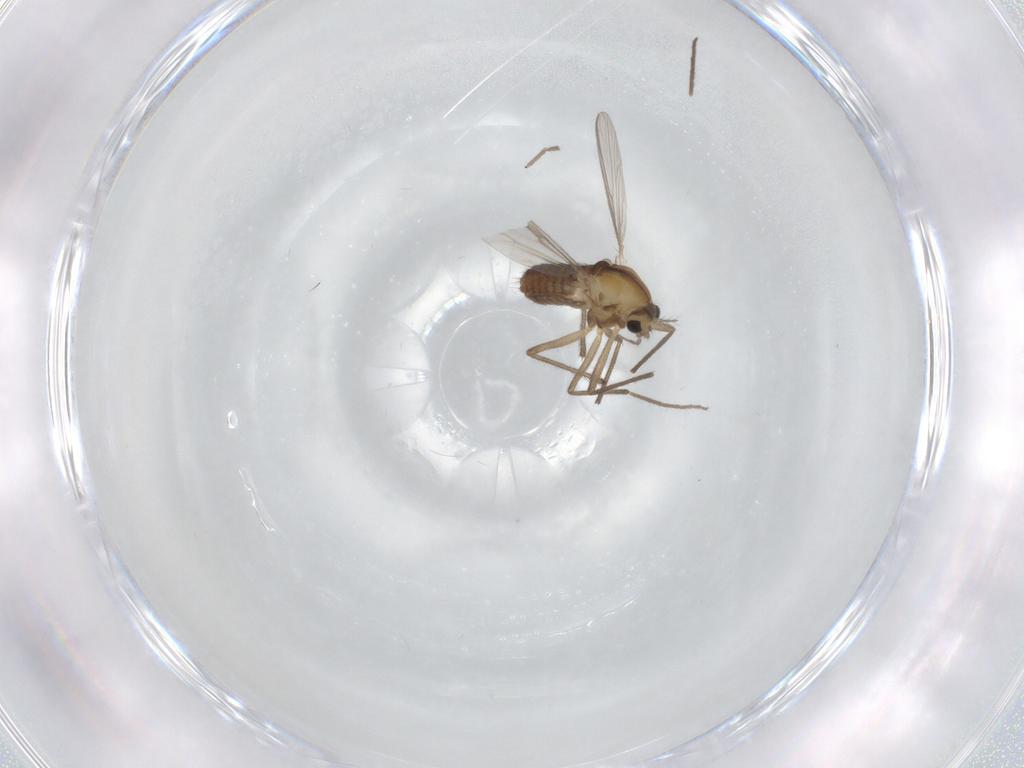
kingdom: Animalia
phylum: Arthropoda
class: Insecta
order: Diptera
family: Chironomidae
